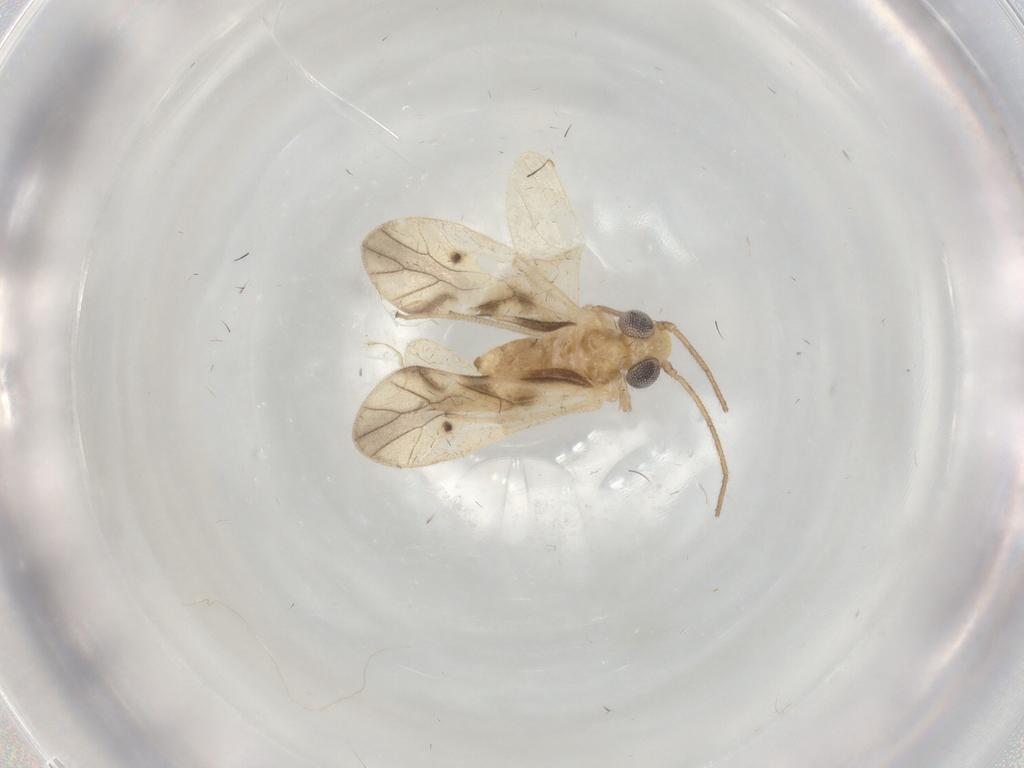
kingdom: Animalia
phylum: Arthropoda
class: Insecta
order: Psocodea
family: Caeciliusidae
